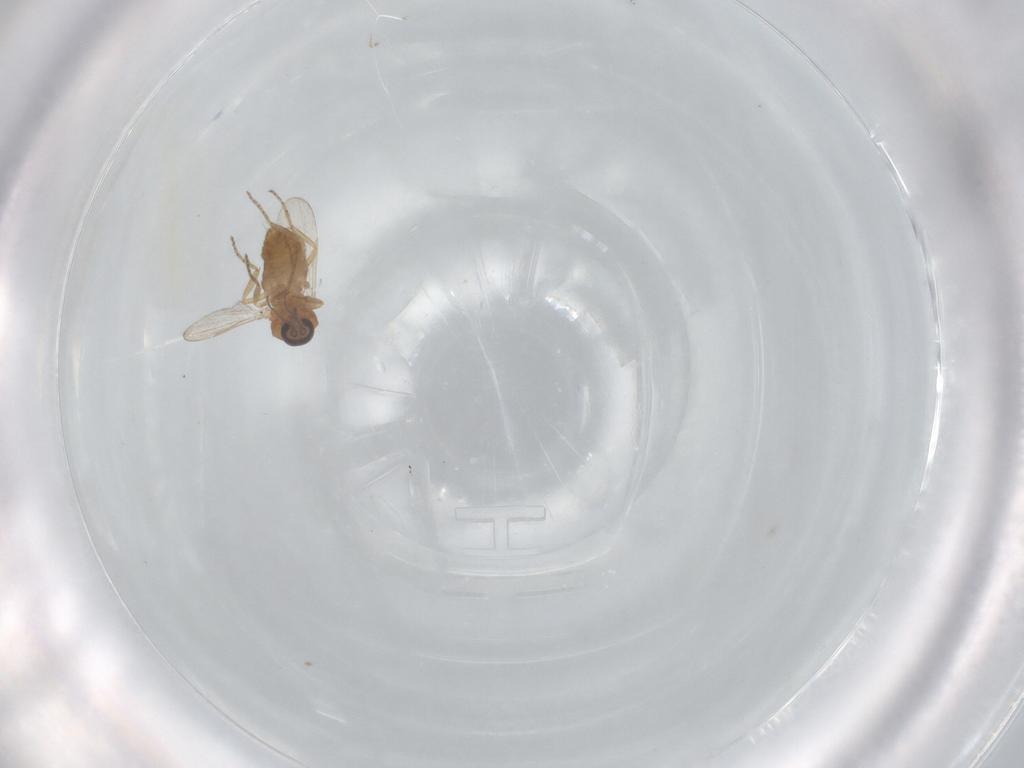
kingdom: Animalia
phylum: Arthropoda
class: Insecta
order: Diptera
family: Ceratopogonidae
